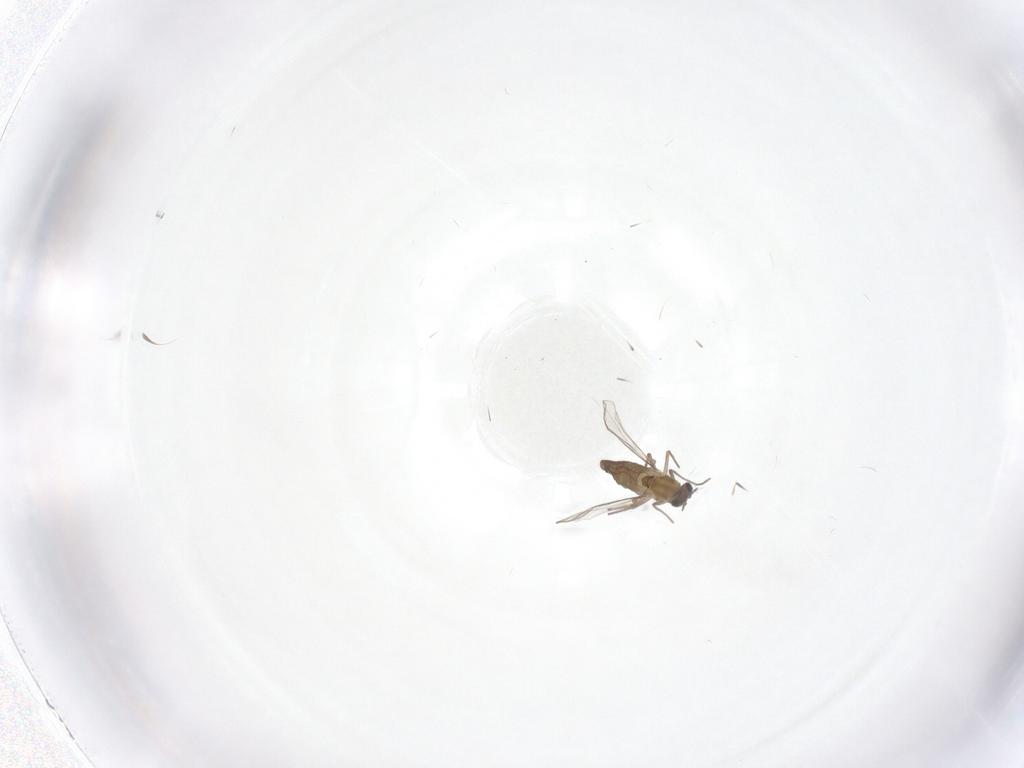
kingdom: Animalia
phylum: Arthropoda
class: Insecta
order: Diptera
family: Chironomidae
